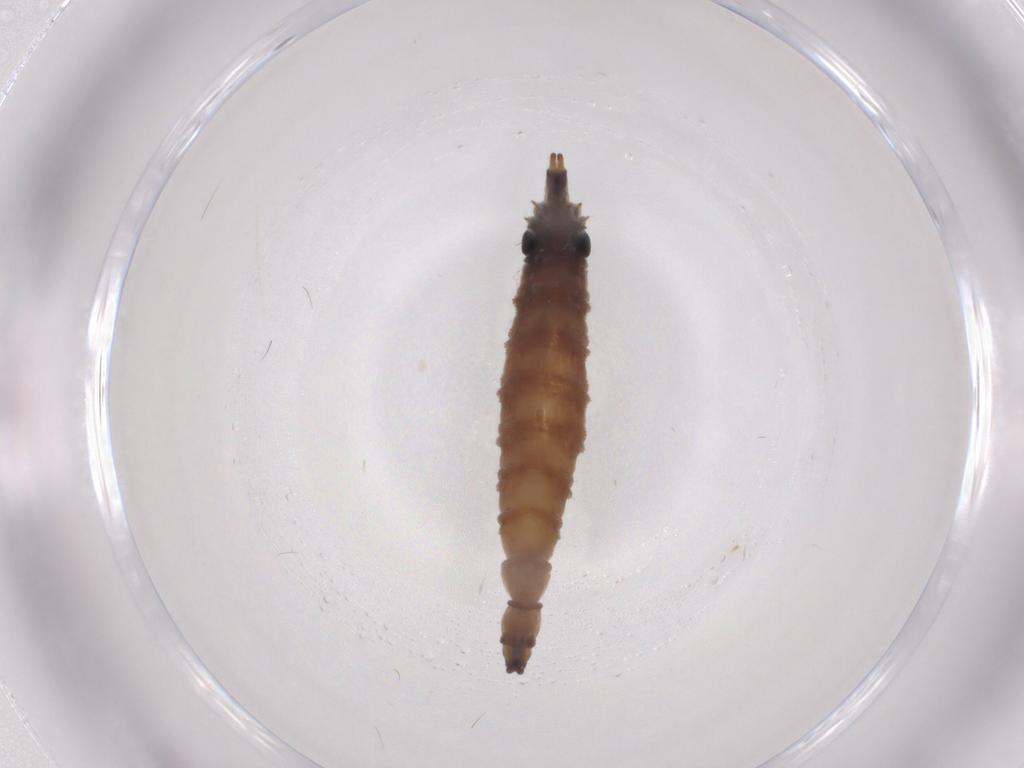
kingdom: Animalia
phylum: Arthropoda
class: Insecta
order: Diptera
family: Drosophilidae
